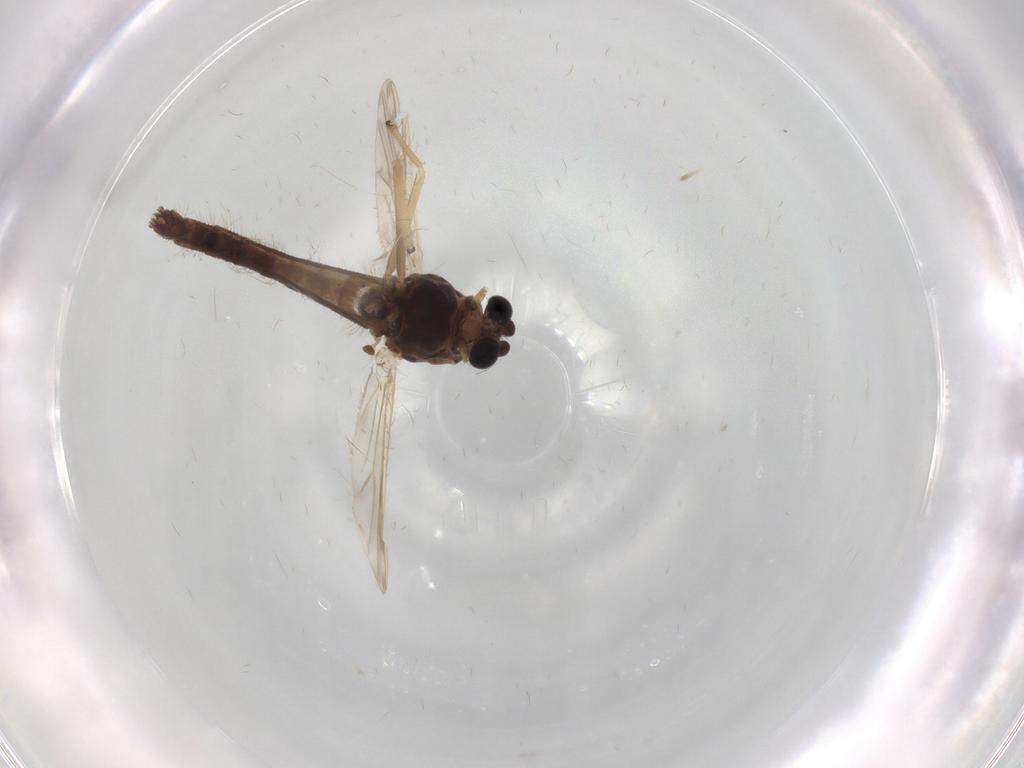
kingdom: Animalia
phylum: Arthropoda
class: Insecta
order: Diptera
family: Chironomidae
